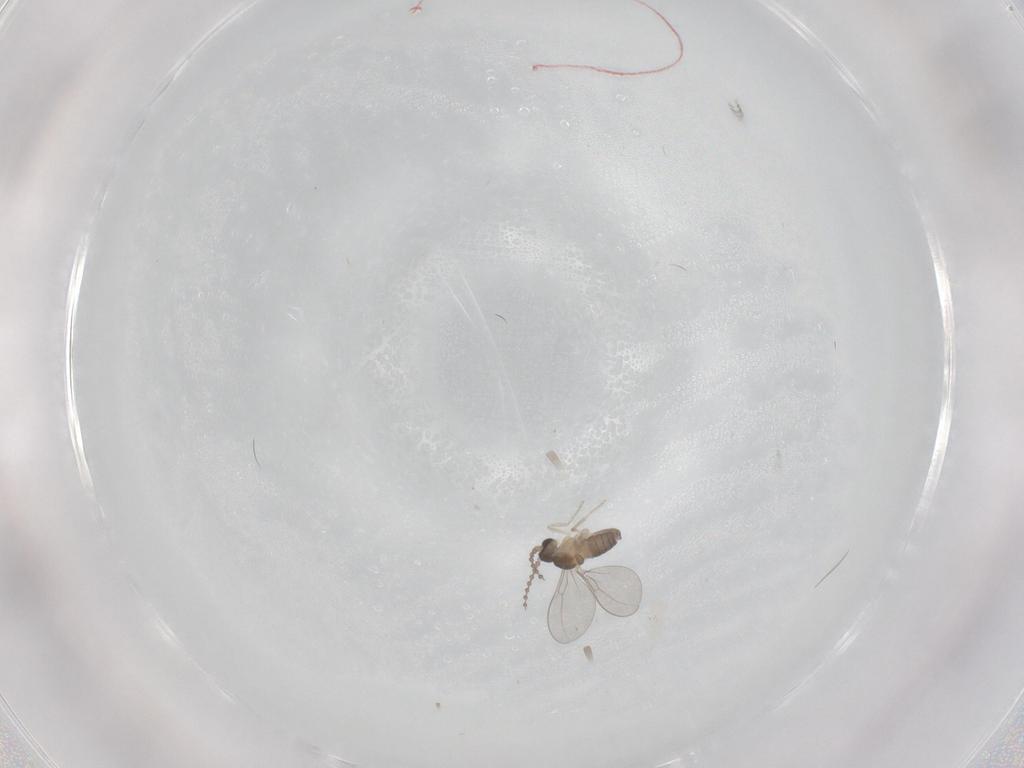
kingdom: Animalia
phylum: Arthropoda
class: Insecta
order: Diptera
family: Cecidomyiidae
